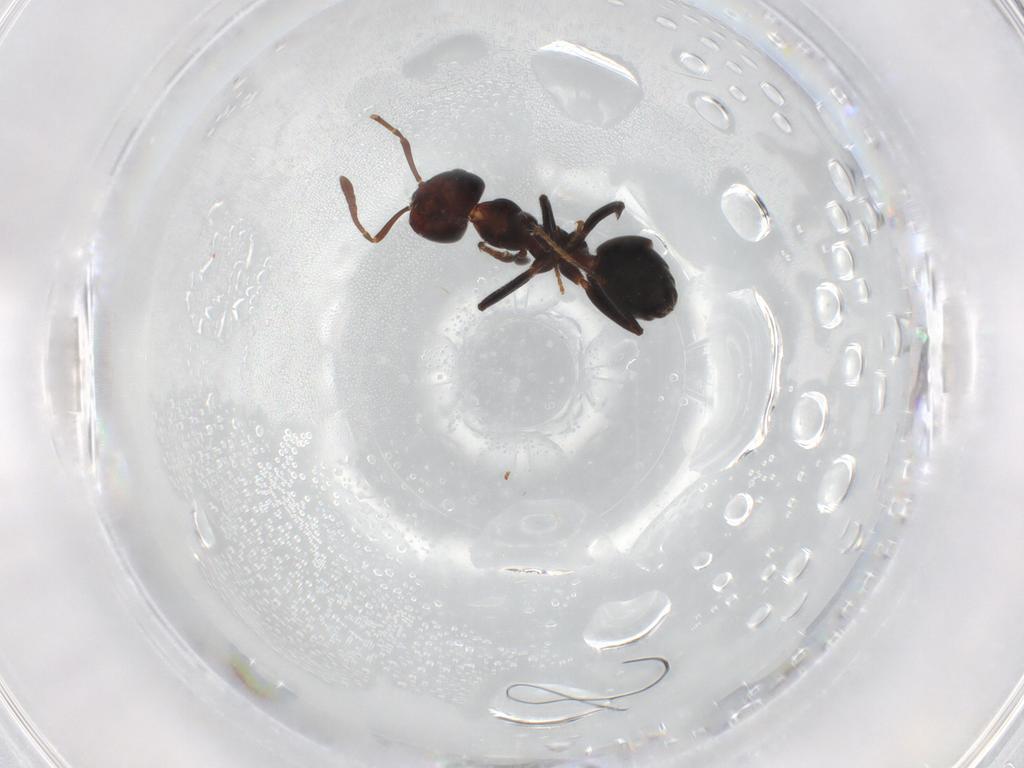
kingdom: Animalia
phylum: Arthropoda
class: Insecta
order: Hymenoptera
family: Formicidae
